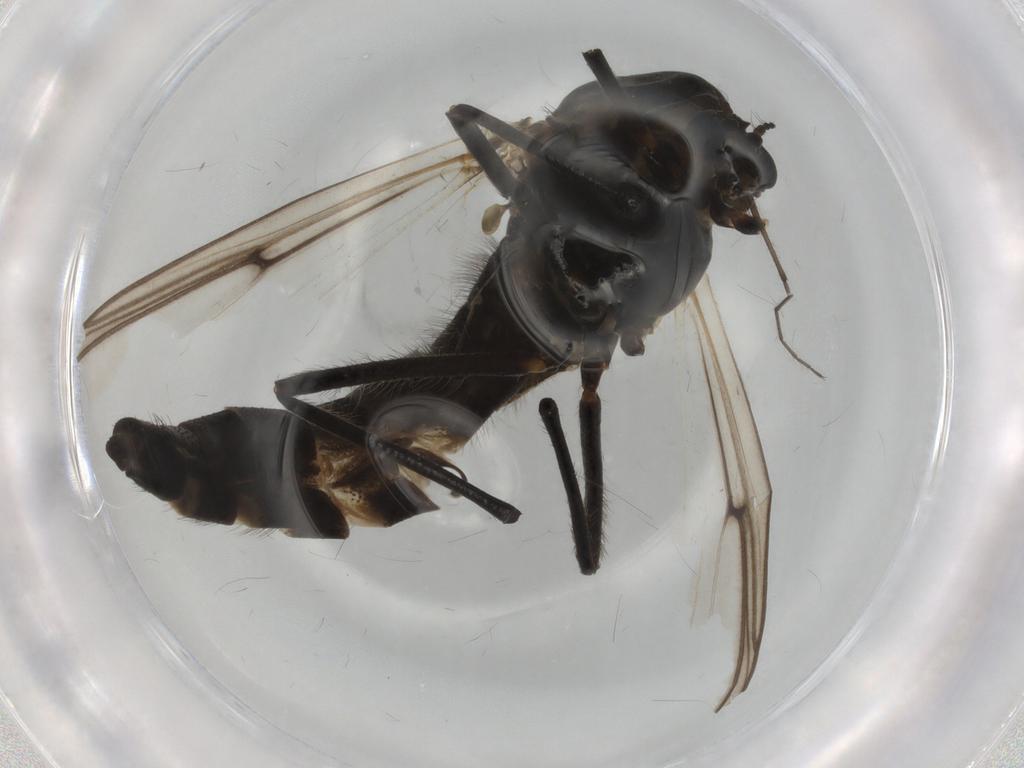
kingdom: Animalia
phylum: Arthropoda
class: Insecta
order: Diptera
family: Chironomidae
